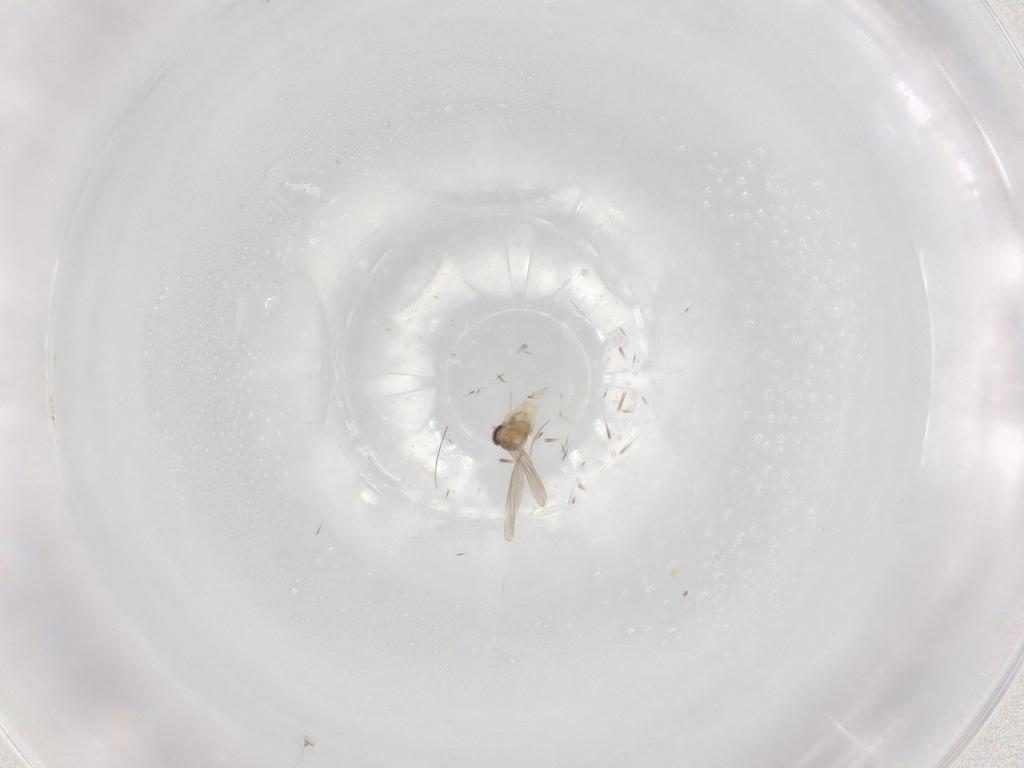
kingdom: Animalia
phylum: Arthropoda
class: Insecta
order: Diptera
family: Cecidomyiidae
